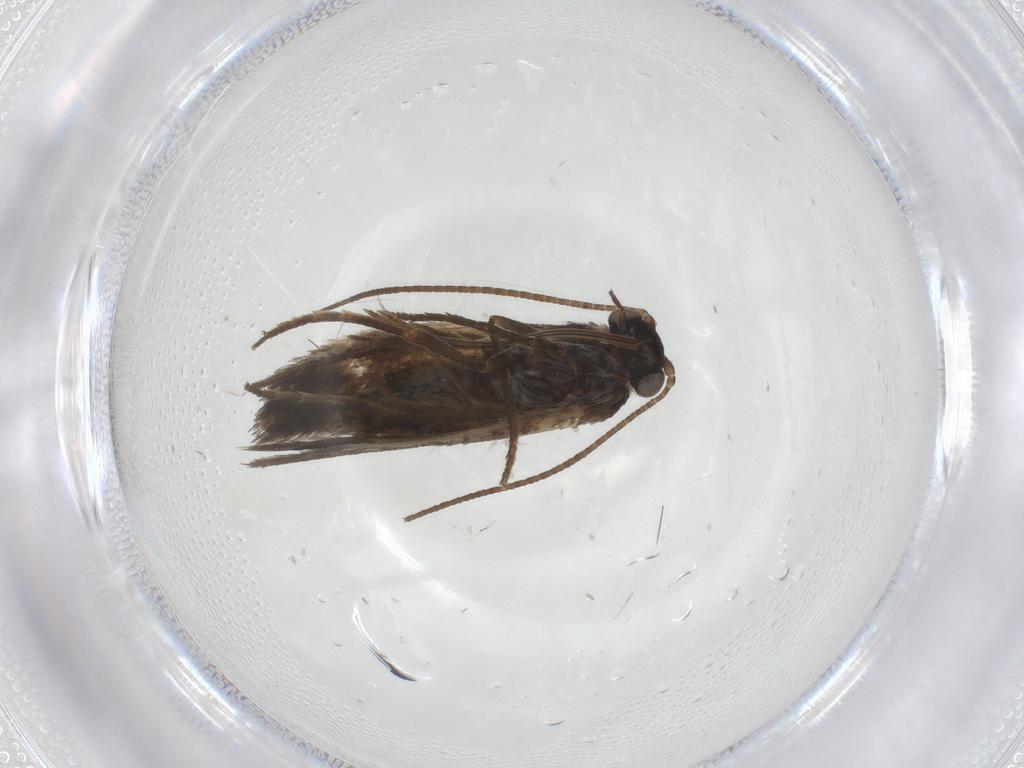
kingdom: Animalia
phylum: Arthropoda
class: Insecta
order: Lepidoptera
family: Adelidae
